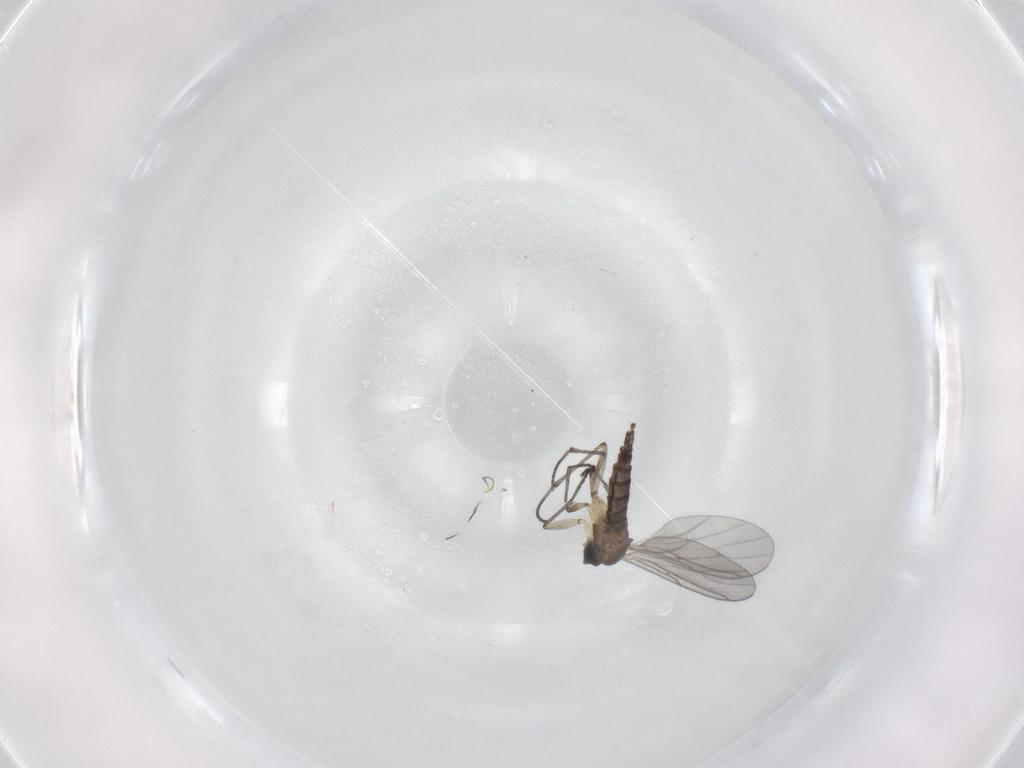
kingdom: Animalia
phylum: Arthropoda
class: Insecta
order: Diptera
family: Sciaridae
